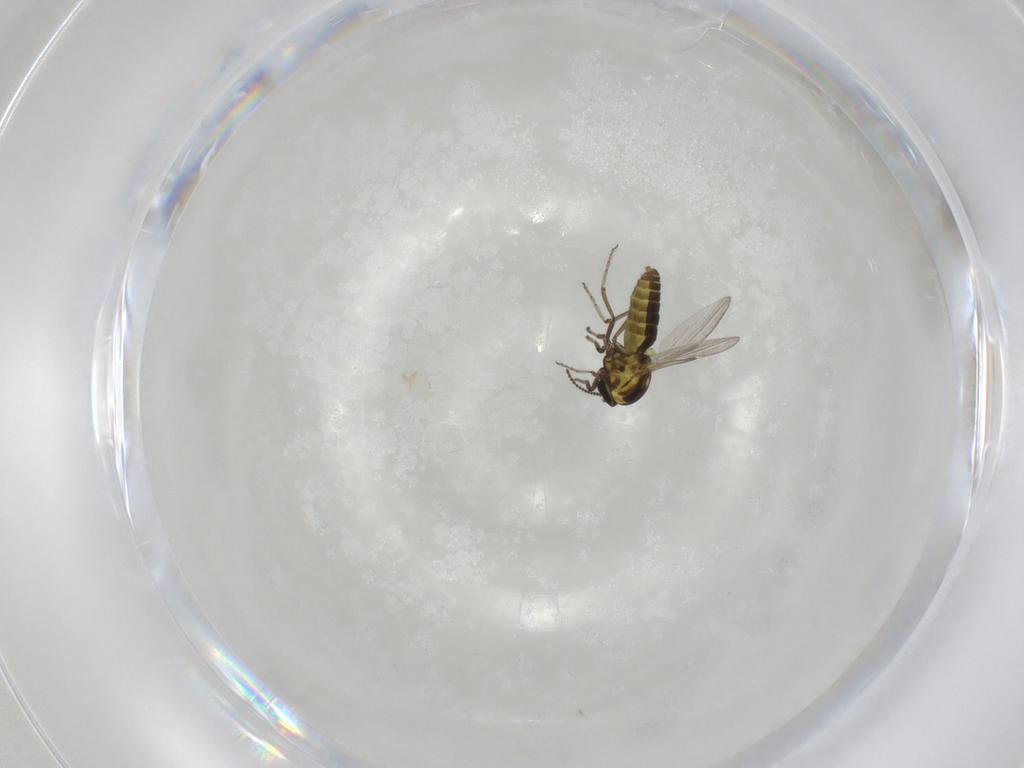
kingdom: Animalia
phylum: Arthropoda
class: Insecta
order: Diptera
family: Ceratopogonidae
